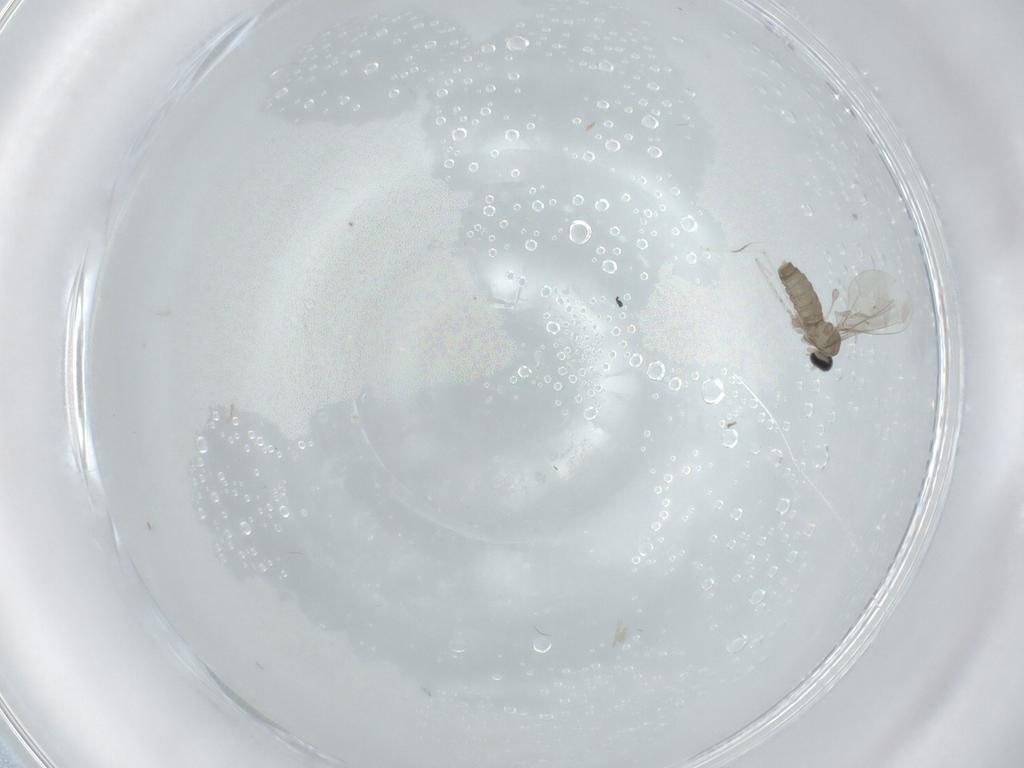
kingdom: Animalia
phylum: Arthropoda
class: Insecta
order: Diptera
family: Cecidomyiidae
